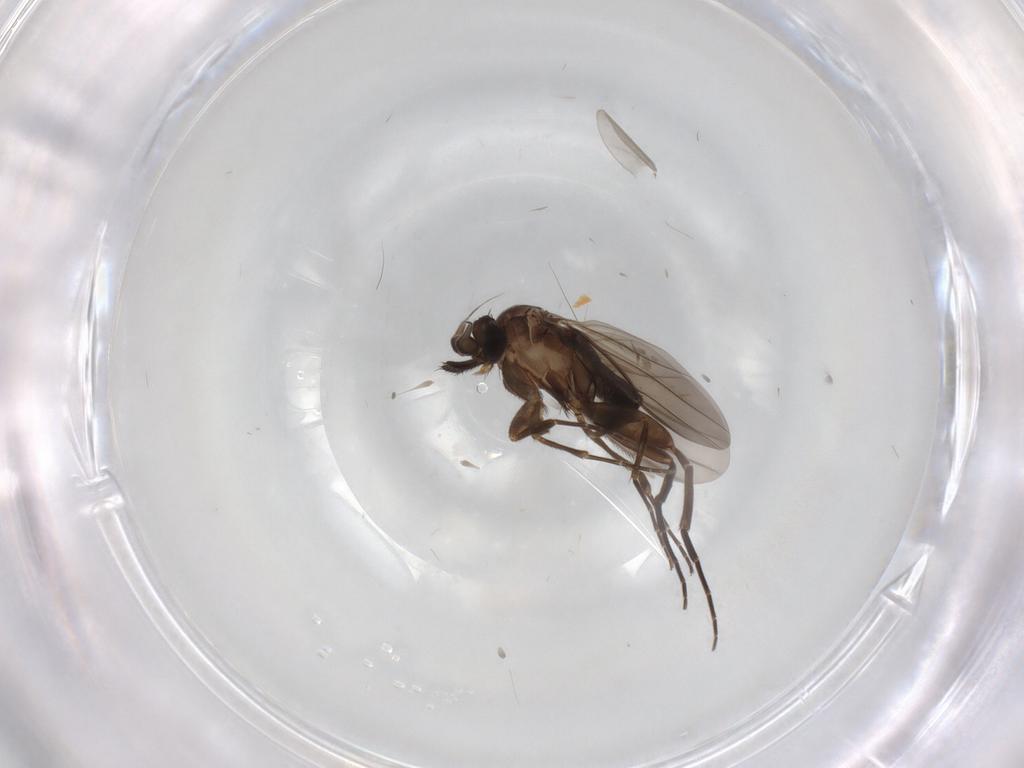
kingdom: Animalia
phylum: Arthropoda
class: Insecta
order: Diptera
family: Phoridae
